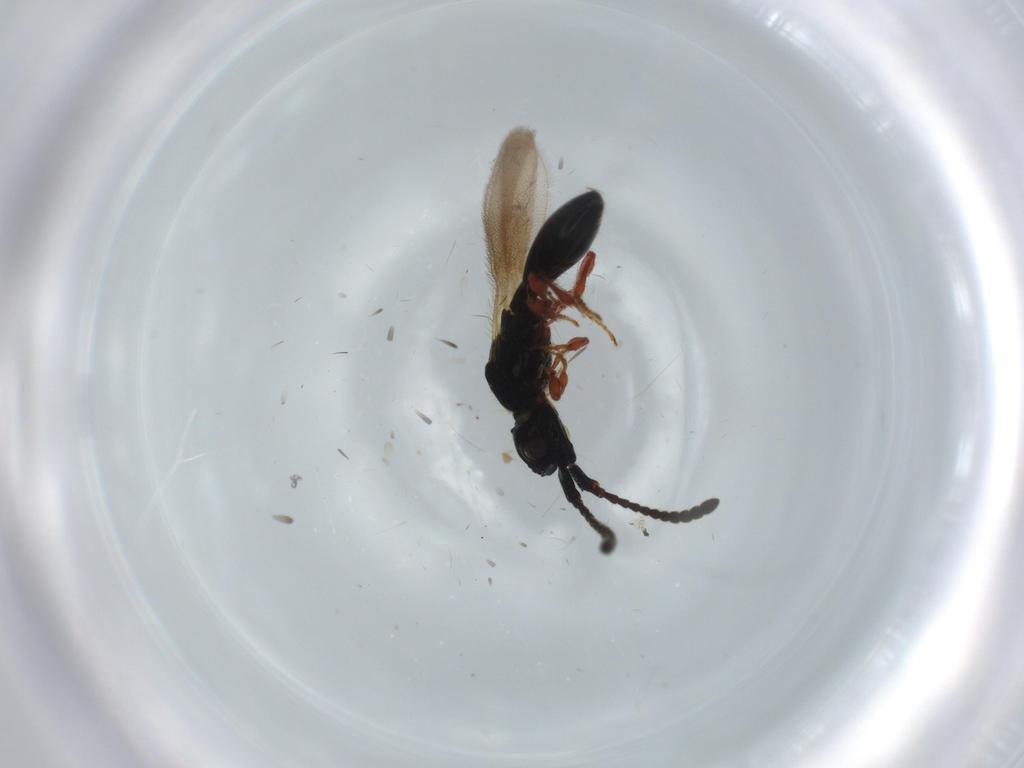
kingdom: Animalia
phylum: Arthropoda
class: Insecta
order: Hymenoptera
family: Diapriidae
